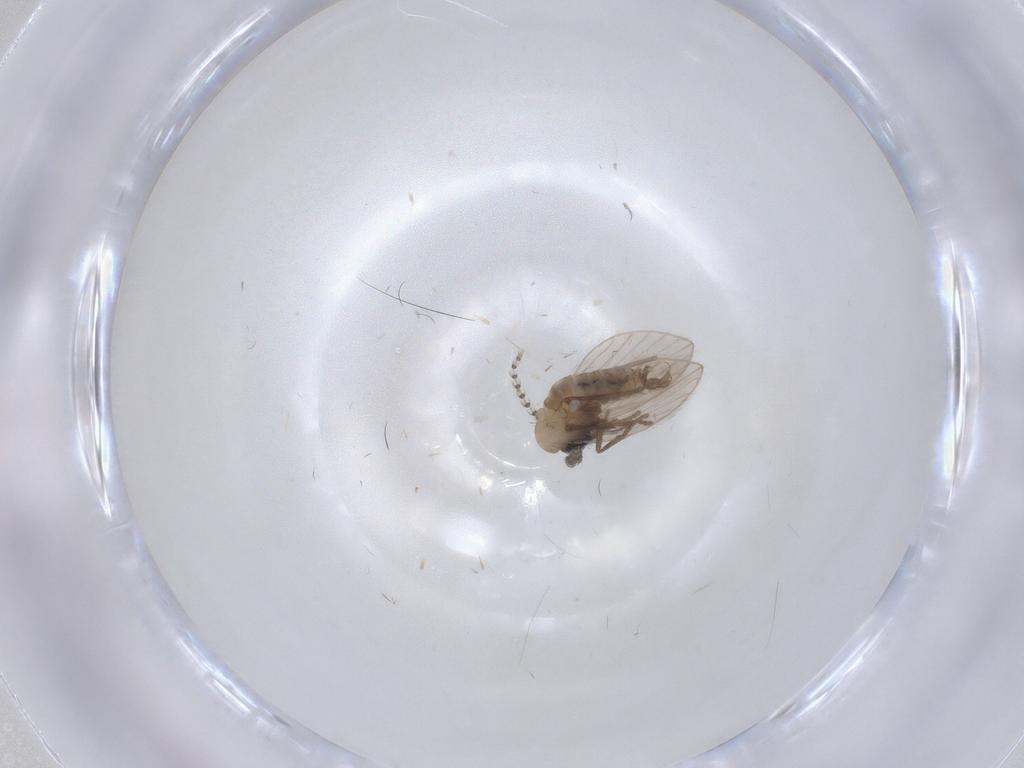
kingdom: Animalia
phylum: Arthropoda
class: Insecta
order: Diptera
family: Psychodidae
